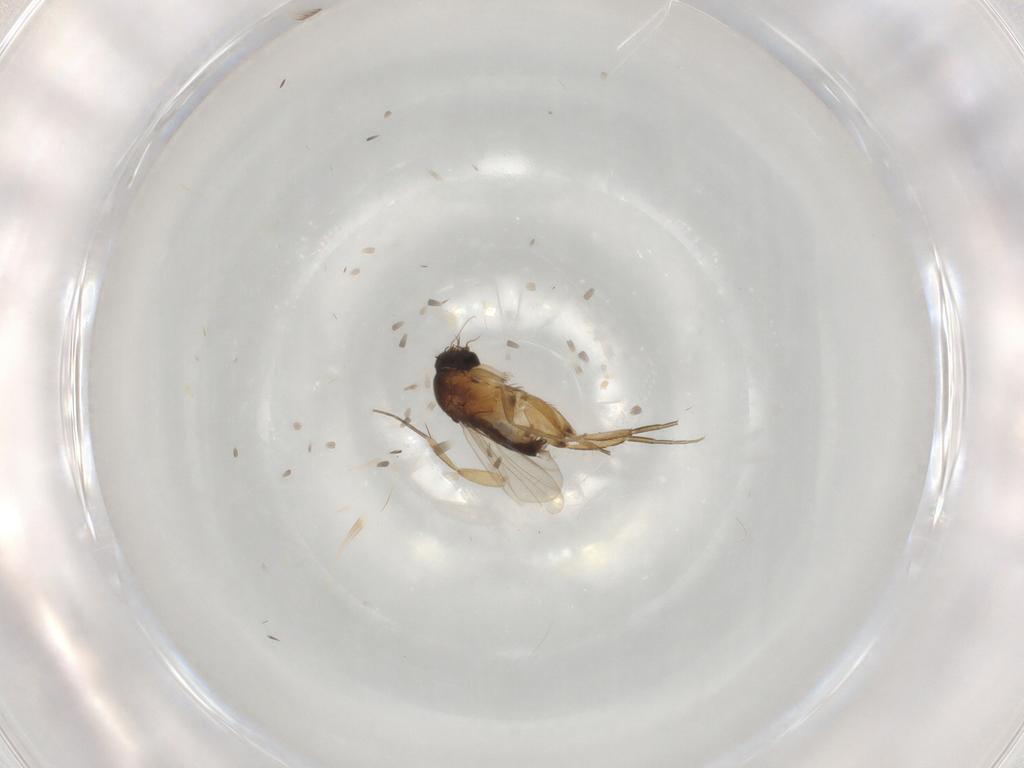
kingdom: Animalia
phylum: Arthropoda
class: Insecta
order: Diptera
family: Phoridae
